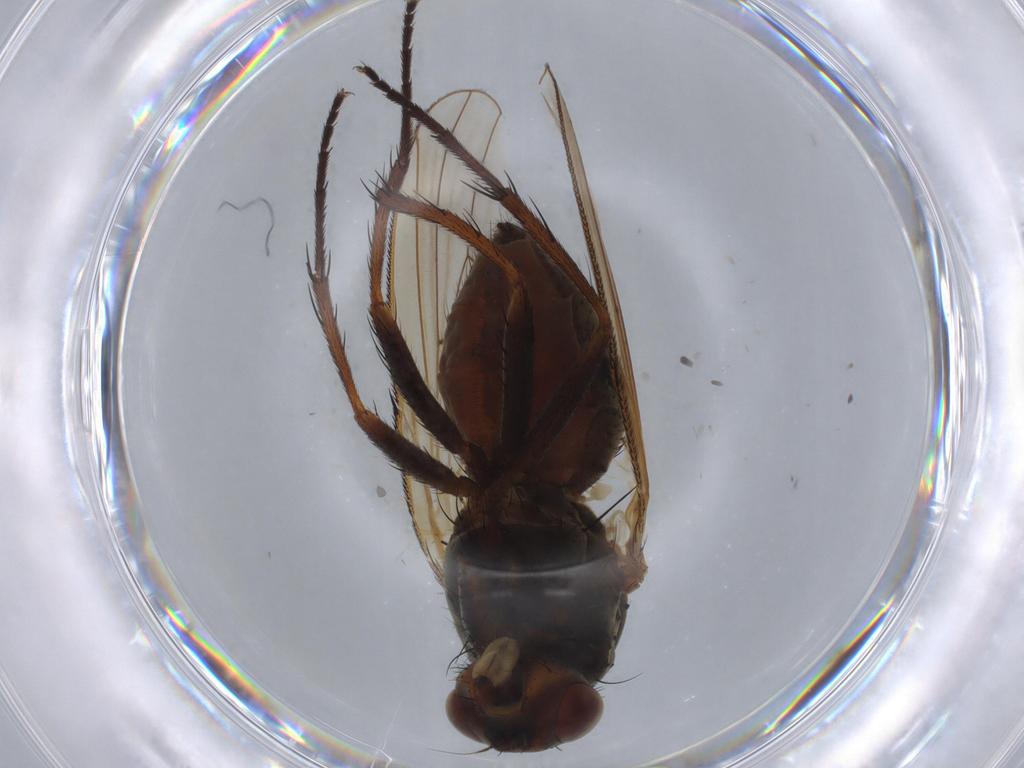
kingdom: Animalia
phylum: Arthropoda
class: Insecta
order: Diptera
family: Anthomyiidae
